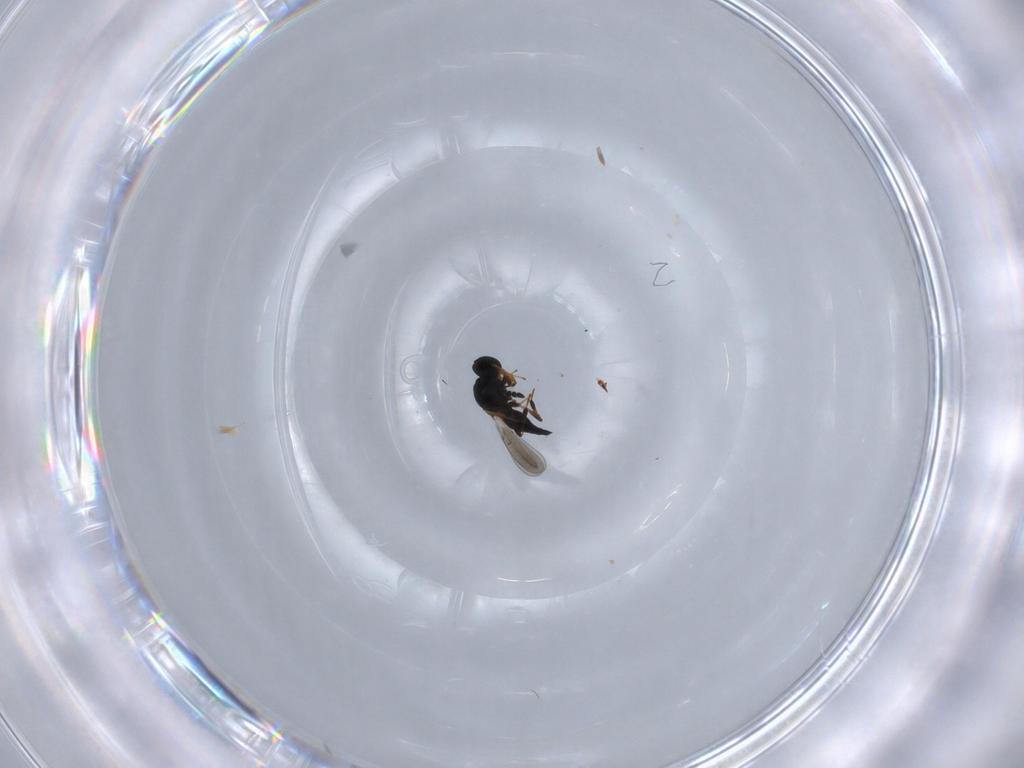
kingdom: Animalia
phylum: Arthropoda
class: Insecta
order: Hymenoptera
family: Platygastridae
